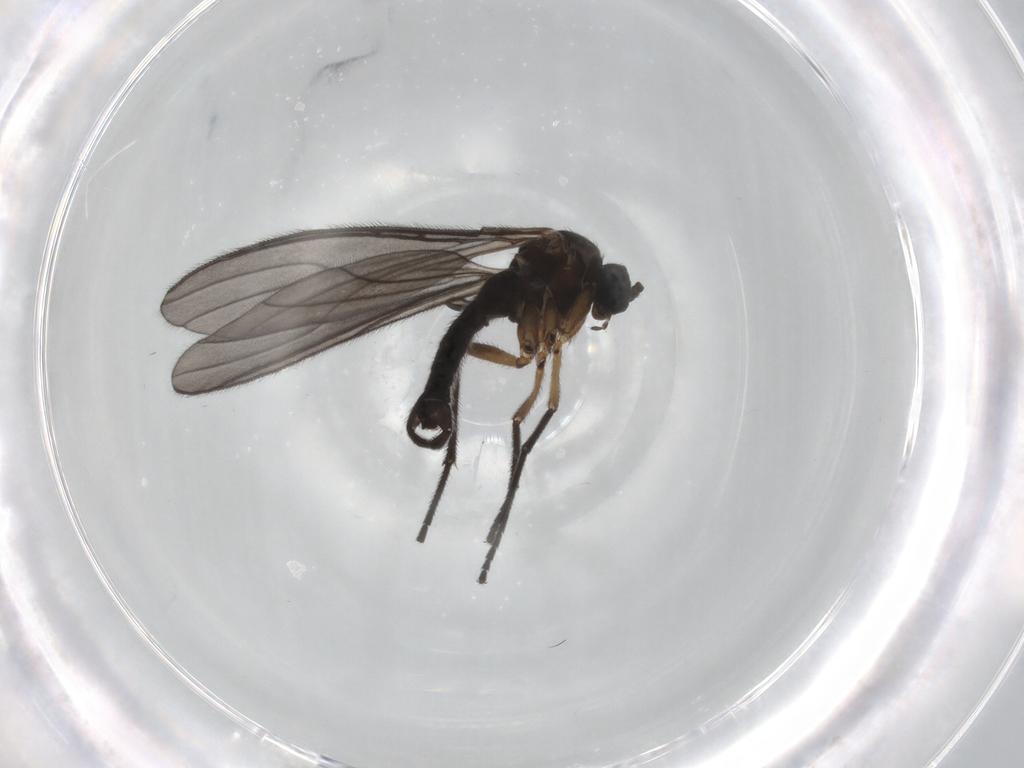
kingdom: Animalia
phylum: Arthropoda
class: Insecta
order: Diptera
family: Sciaridae
